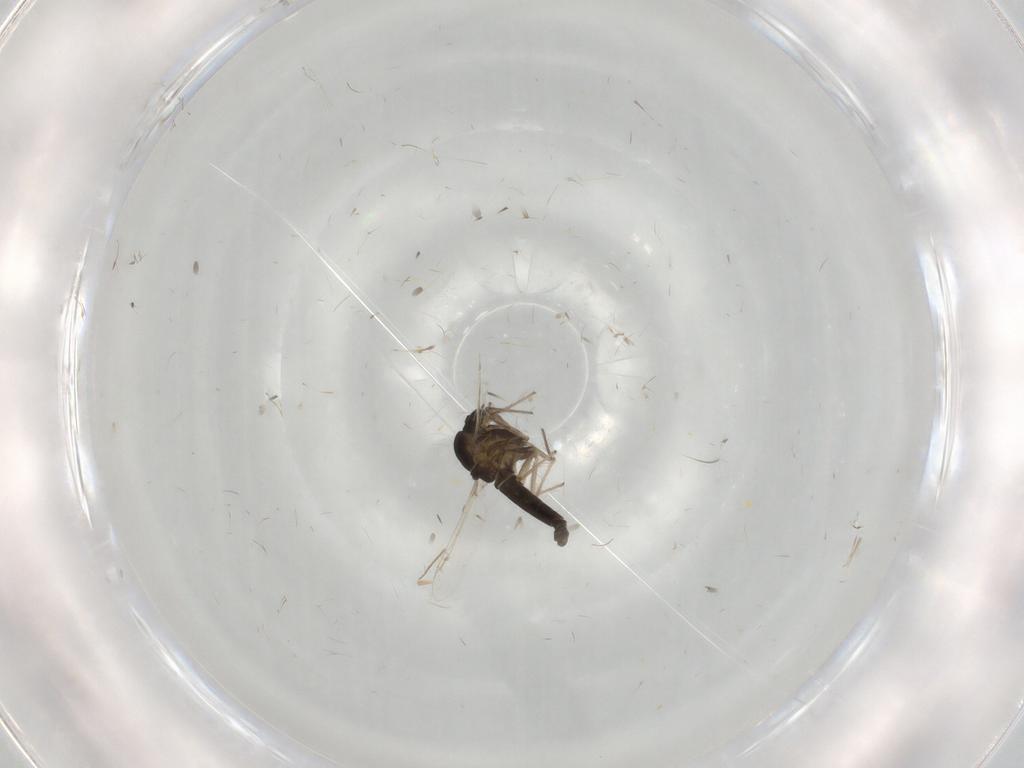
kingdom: Animalia
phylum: Arthropoda
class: Insecta
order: Diptera
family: Chironomidae
